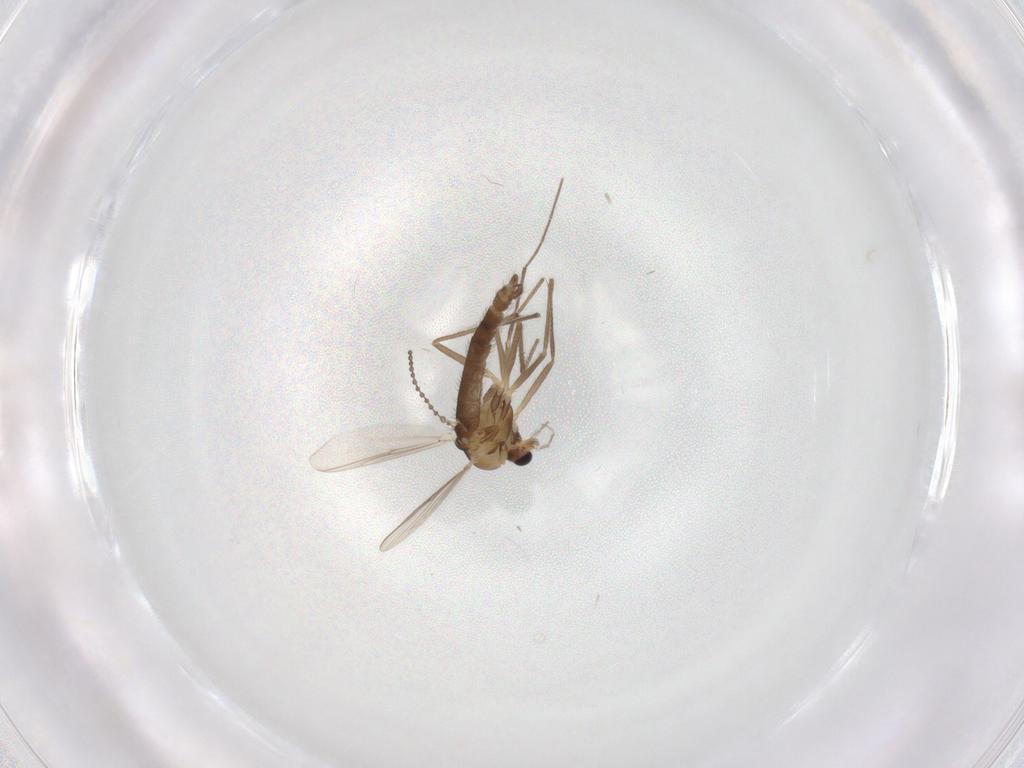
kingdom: Animalia
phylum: Arthropoda
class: Insecta
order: Diptera
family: Chironomidae
